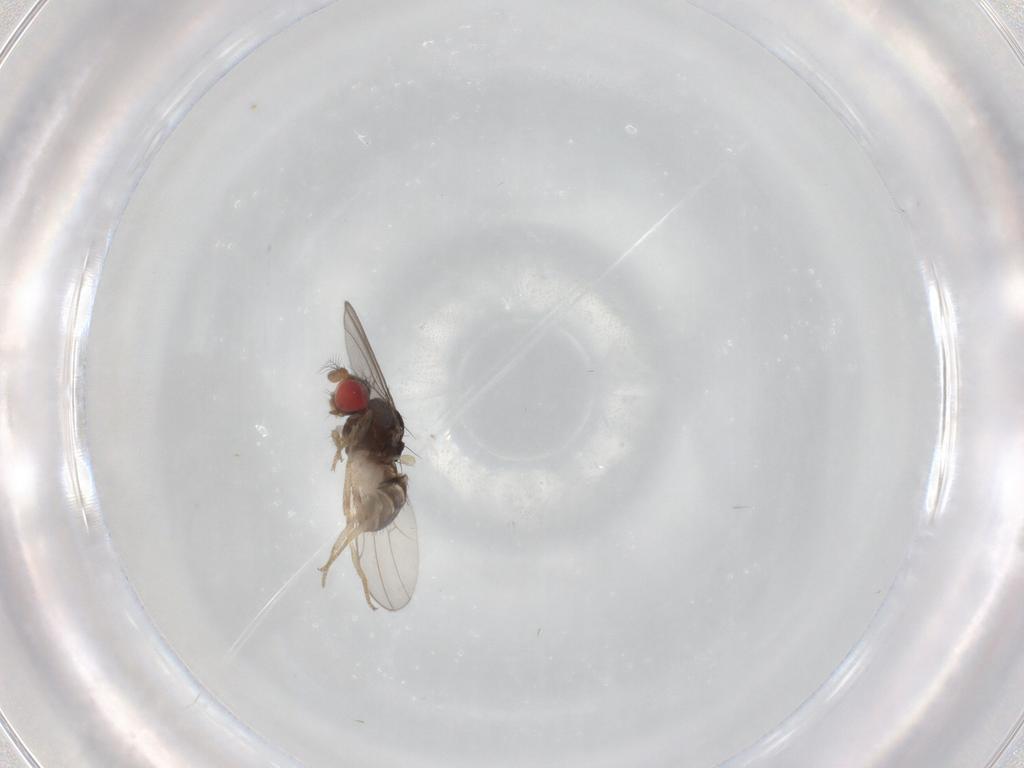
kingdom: Animalia
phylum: Arthropoda
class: Insecta
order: Diptera
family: Drosophilidae
